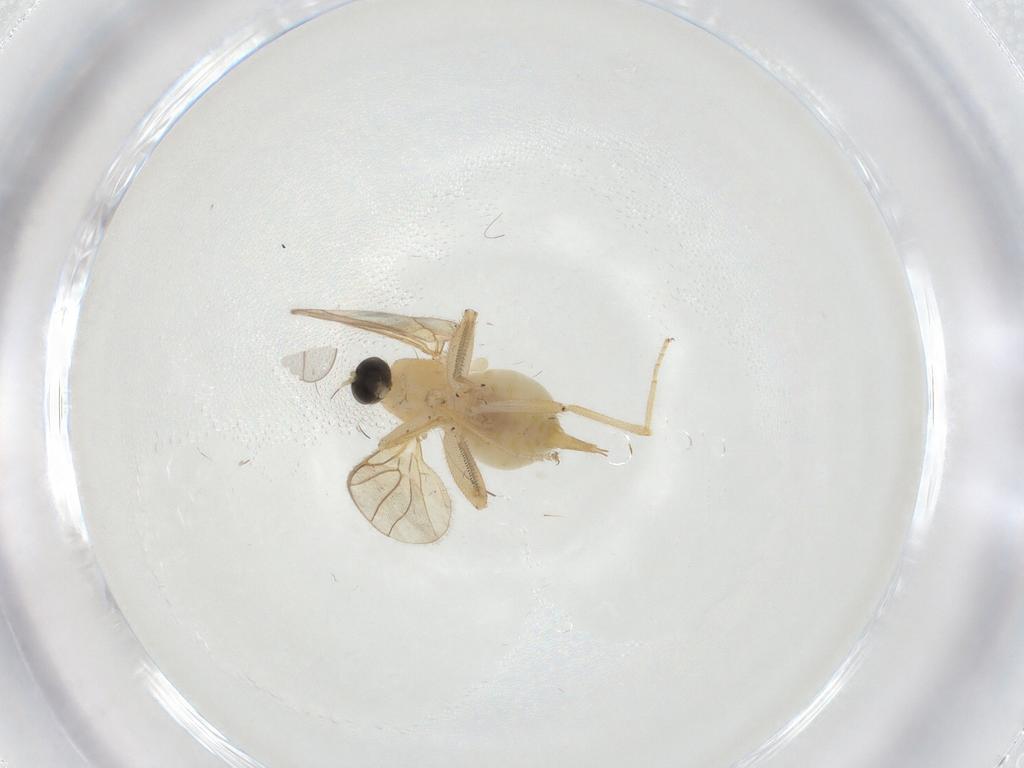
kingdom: Animalia
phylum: Arthropoda
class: Insecta
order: Diptera
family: Ceratopogonidae
